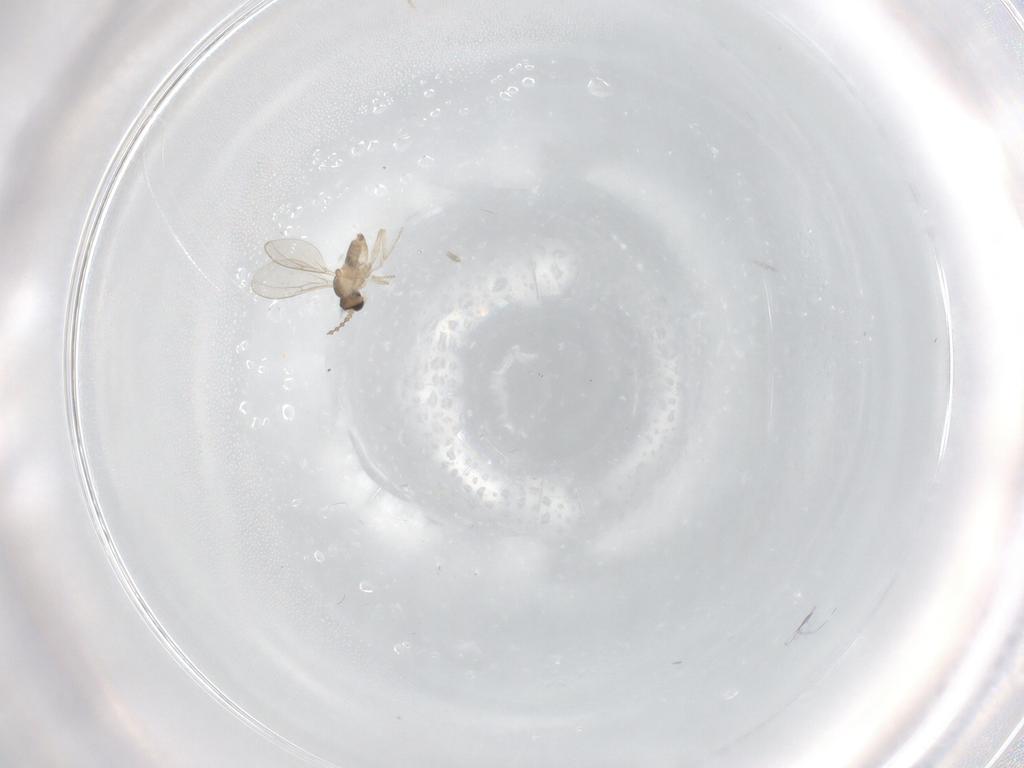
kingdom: Animalia
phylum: Arthropoda
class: Insecta
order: Diptera
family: Cecidomyiidae
